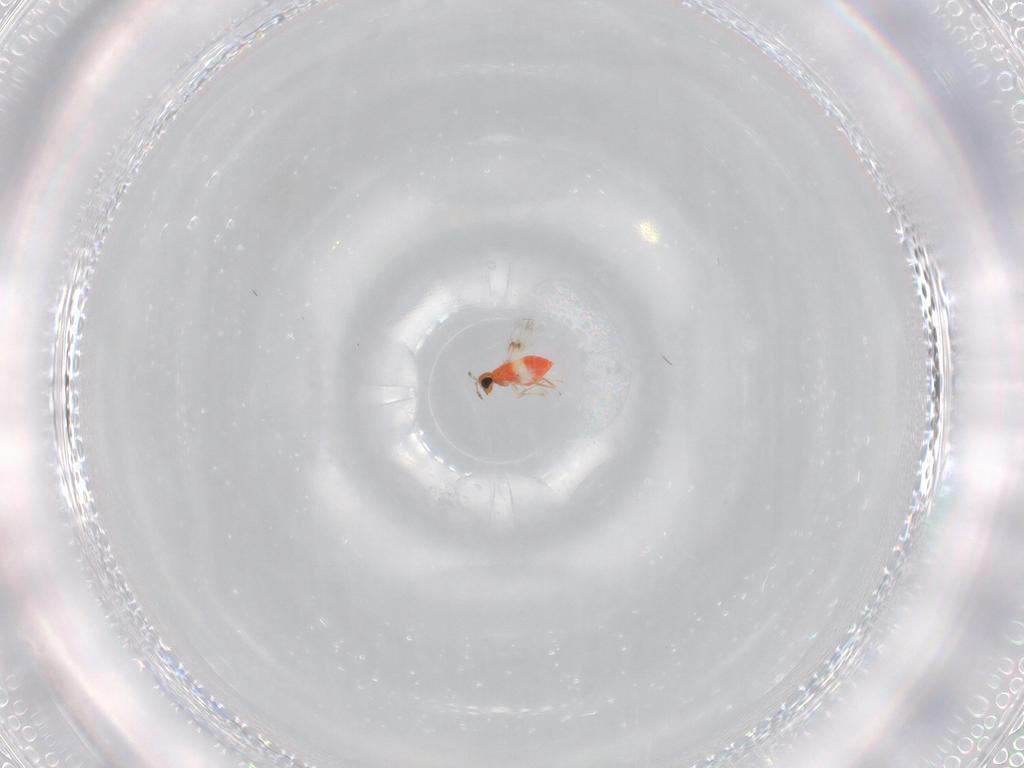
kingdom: Animalia
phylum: Arthropoda
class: Insecta
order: Hymenoptera
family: Trichogrammatidae
